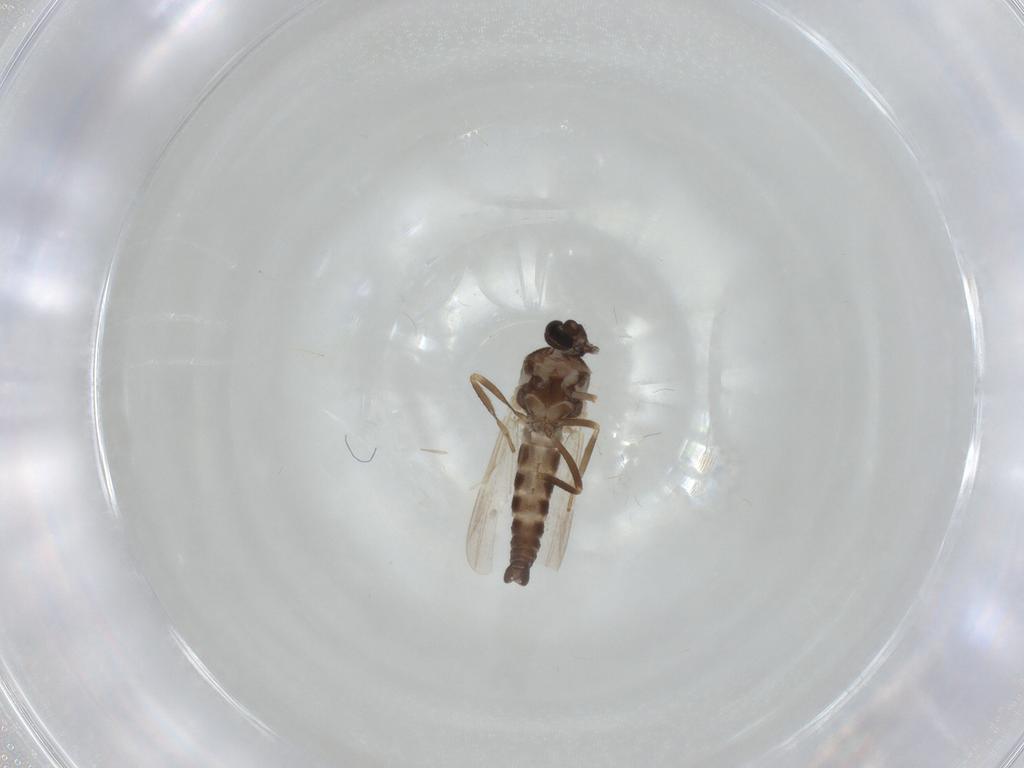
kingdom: Animalia
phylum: Arthropoda
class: Insecta
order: Diptera
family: Ceratopogonidae
